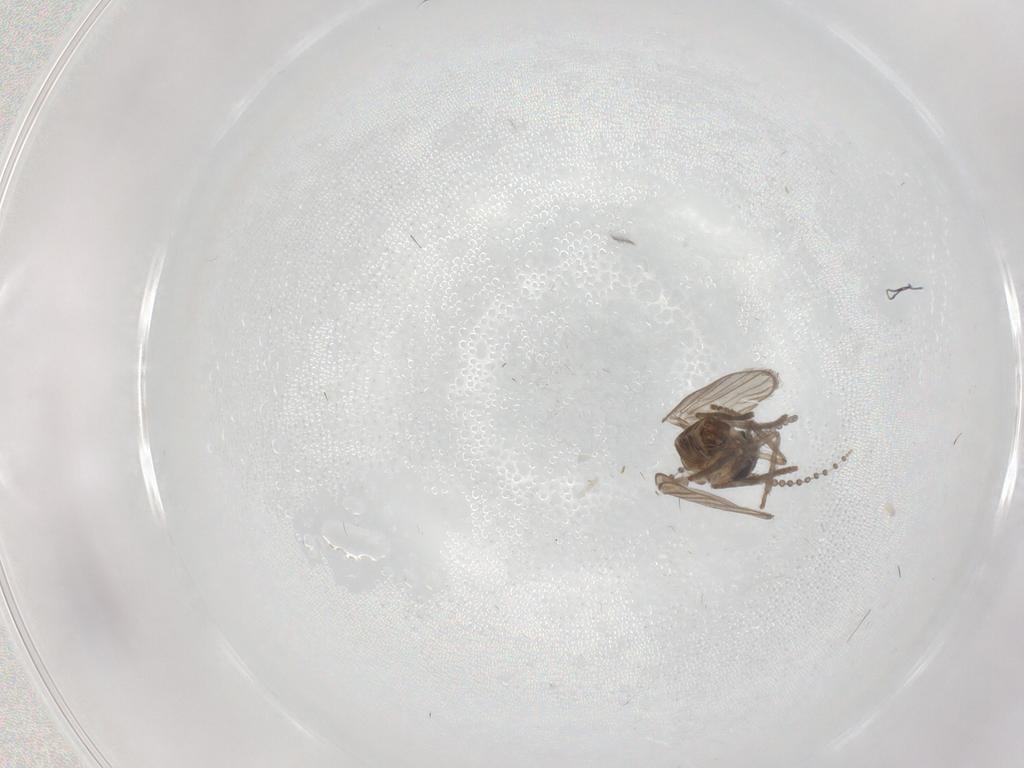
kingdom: Animalia
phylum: Arthropoda
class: Insecta
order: Diptera
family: Psychodidae
